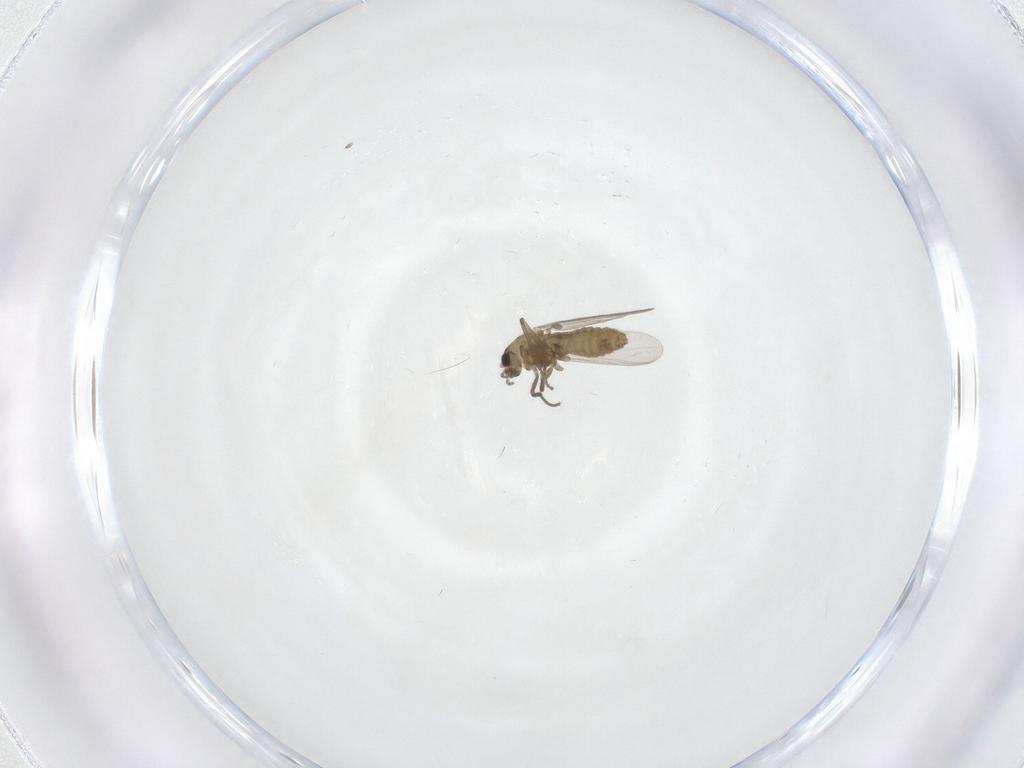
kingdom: Animalia
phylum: Arthropoda
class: Insecta
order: Diptera
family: Chironomidae
